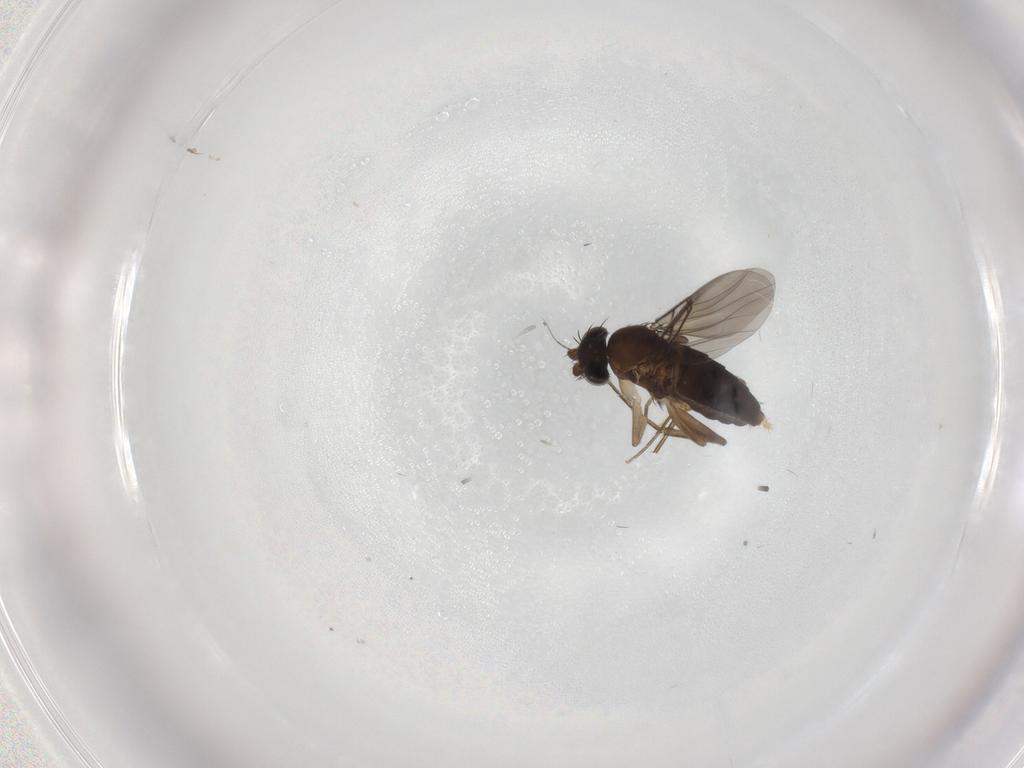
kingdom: Animalia
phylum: Arthropoda
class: Insecta
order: Diptera
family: Phoridae
